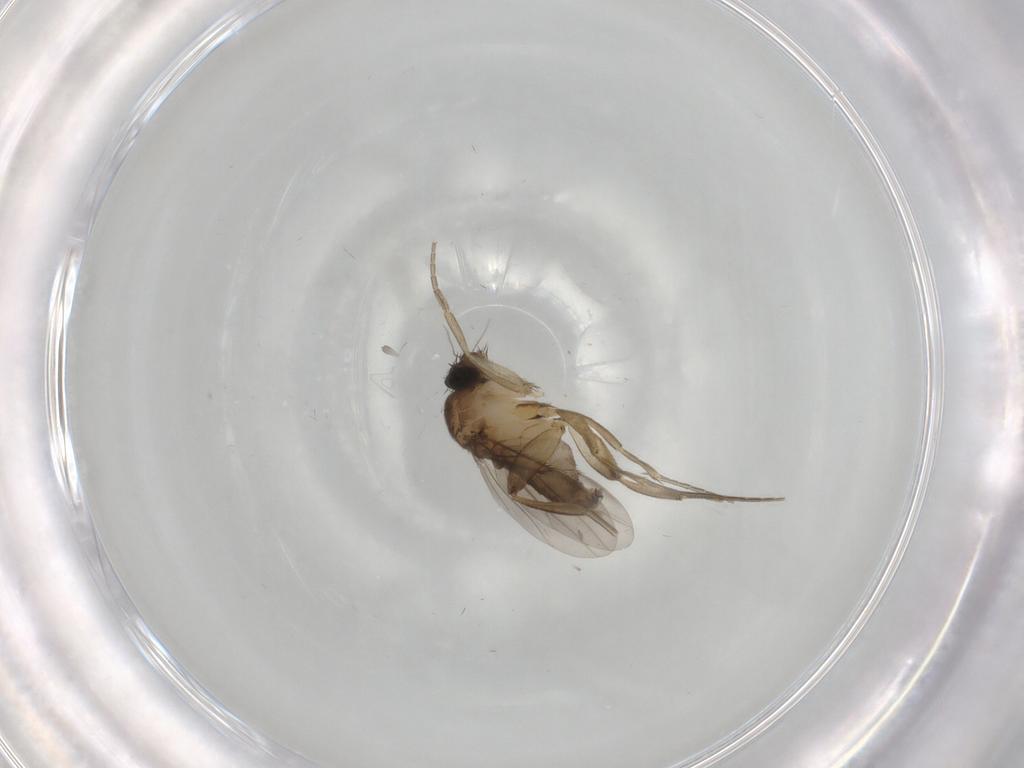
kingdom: Animalia
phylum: Arthropoda
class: Insecta
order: Diptera
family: Phoridae
